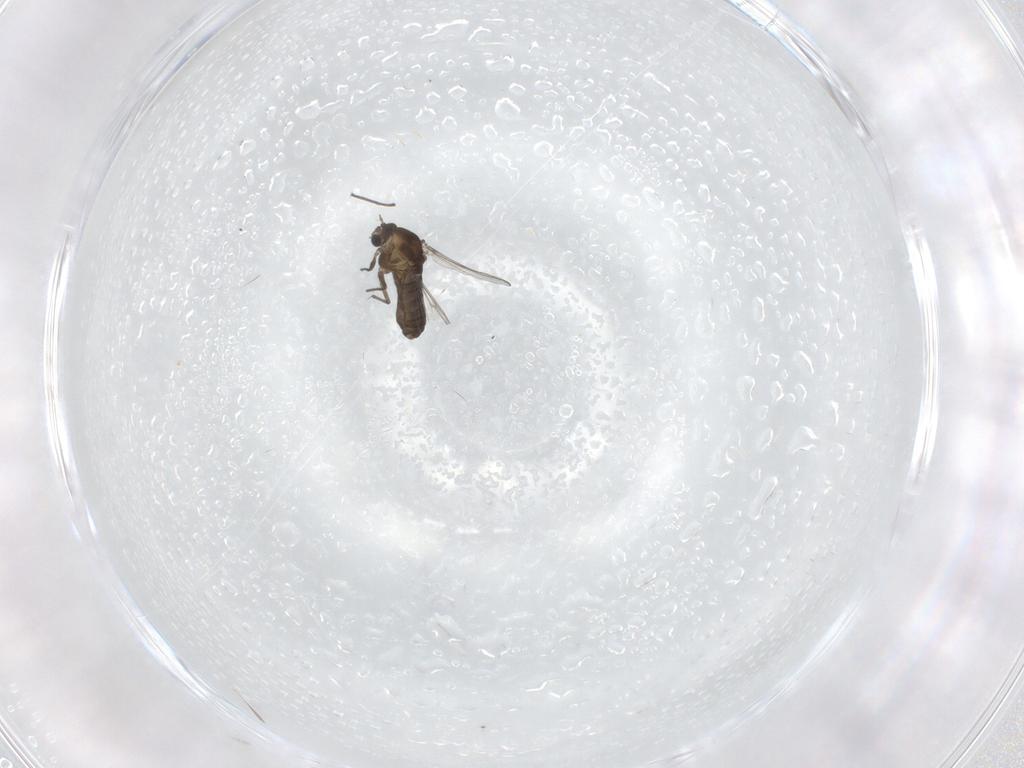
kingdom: Animalia
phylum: Arthropoda
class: Insecta
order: Diptera
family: Chironomidae
